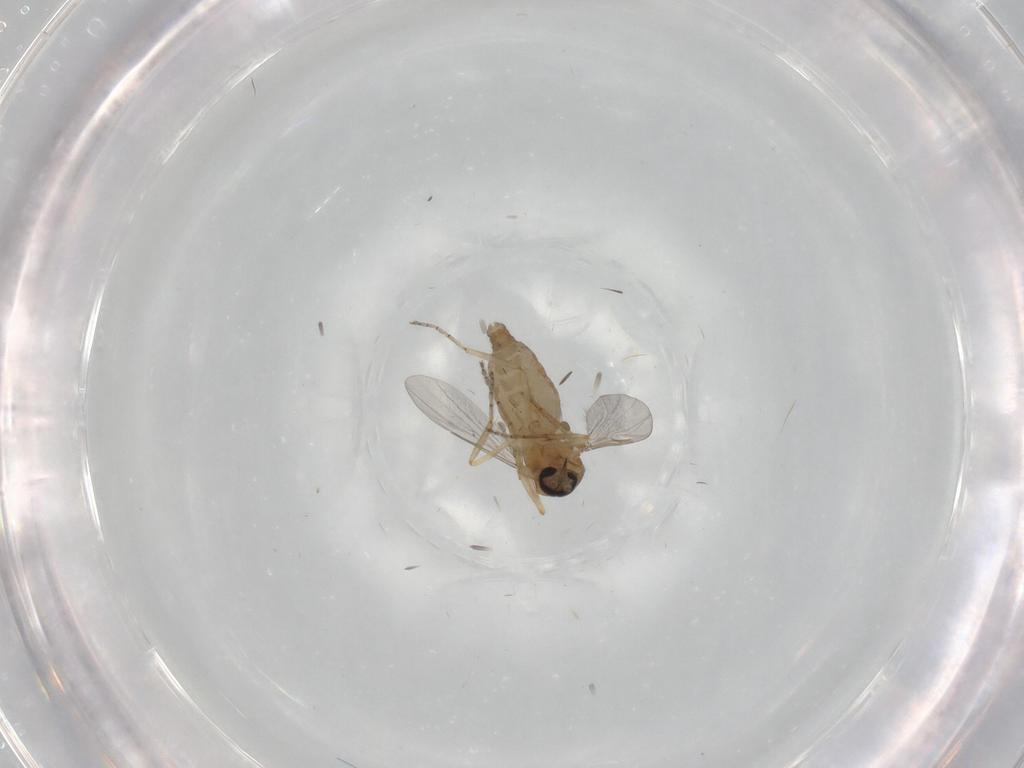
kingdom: Animalia
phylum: Arthropoda
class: Insecta
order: Diptera
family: Ceratopogonidae
